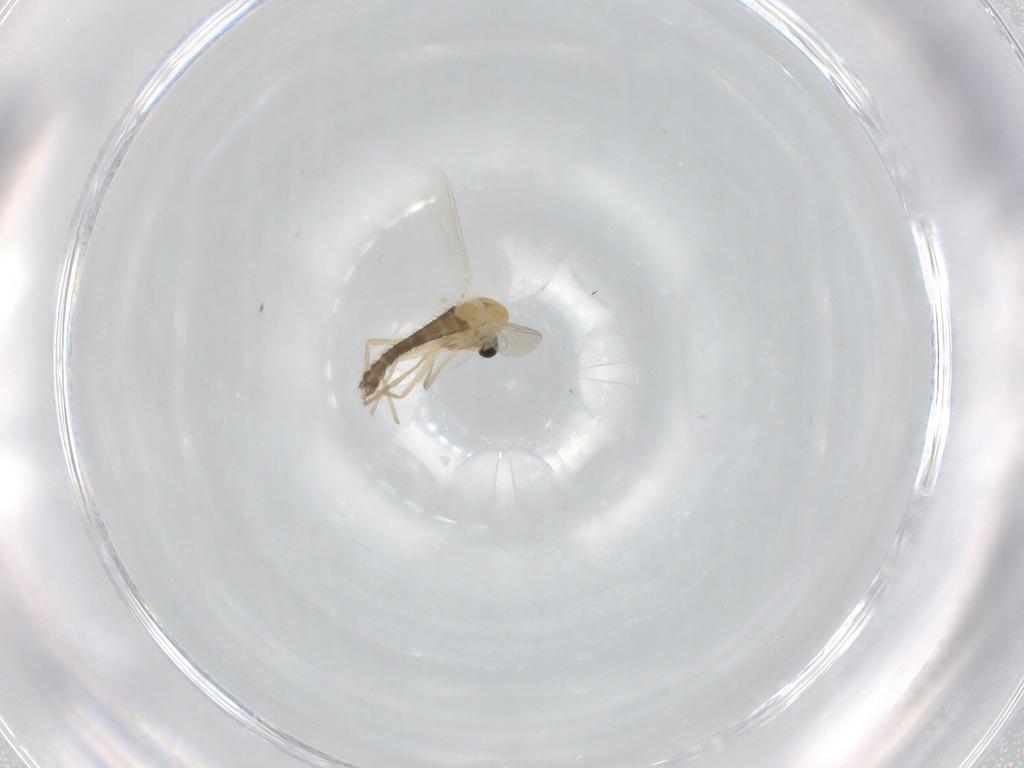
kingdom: Animalia
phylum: Arthropoda
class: Insecta
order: Diptera
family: Chironomidae
